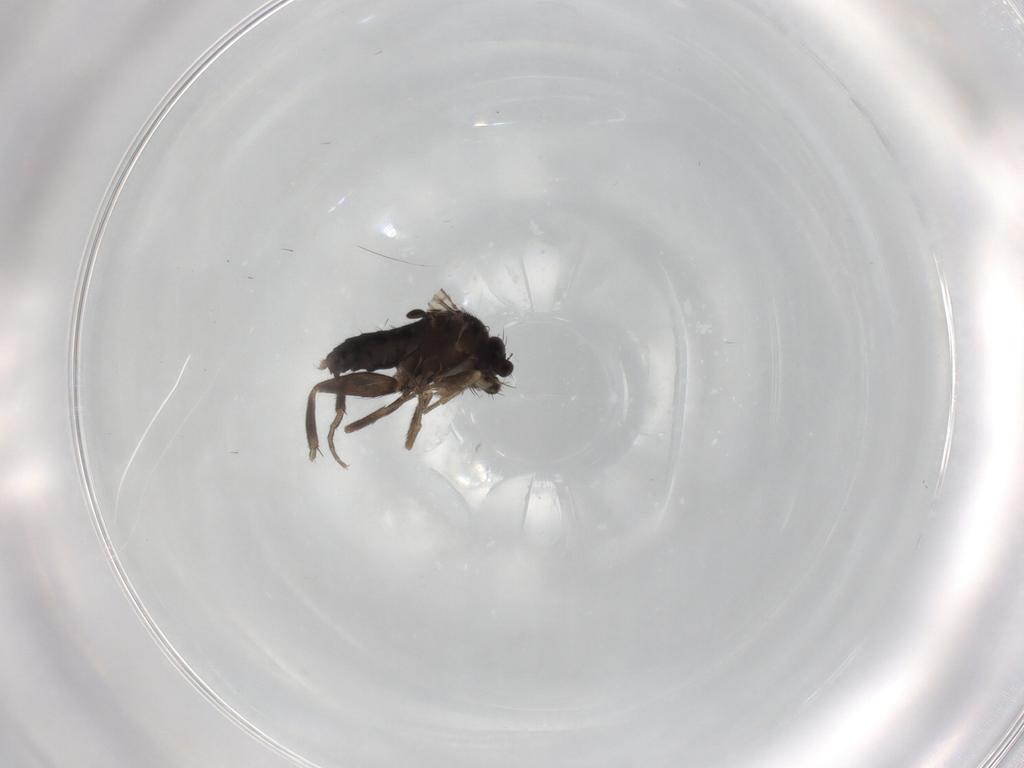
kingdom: Animalia
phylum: Arthropoda
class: Insecta
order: Diptera
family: Phoridae
